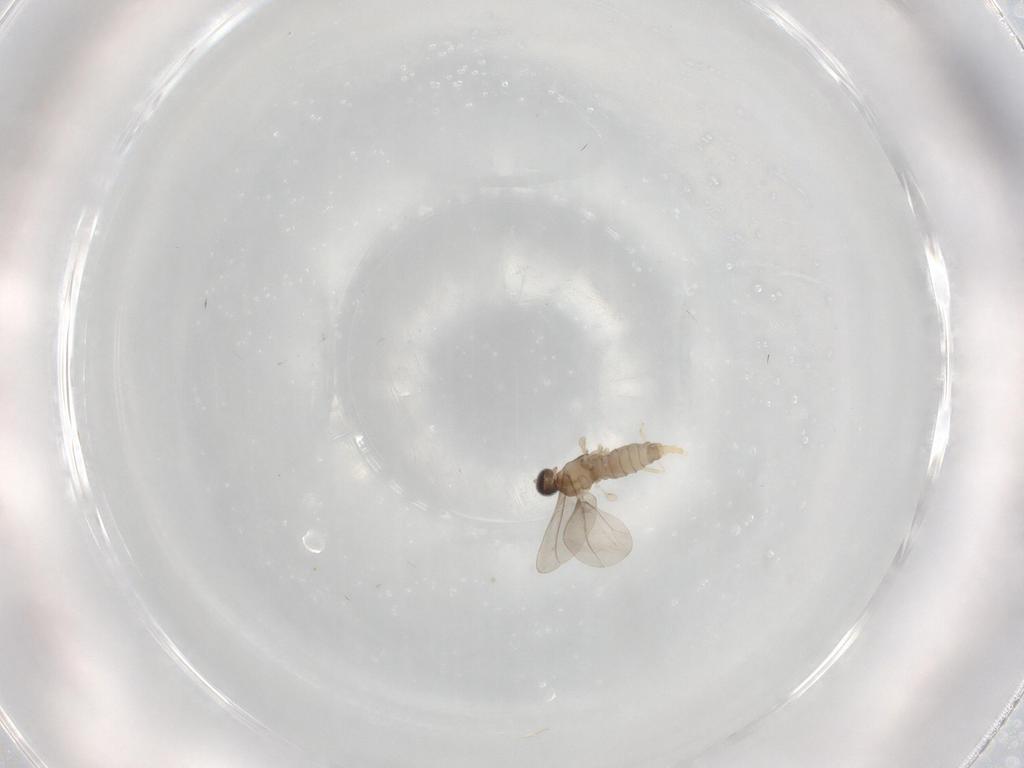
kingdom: Animalia
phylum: Arthropoda
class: Insecta
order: Diptera
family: Cecidomyiidae
